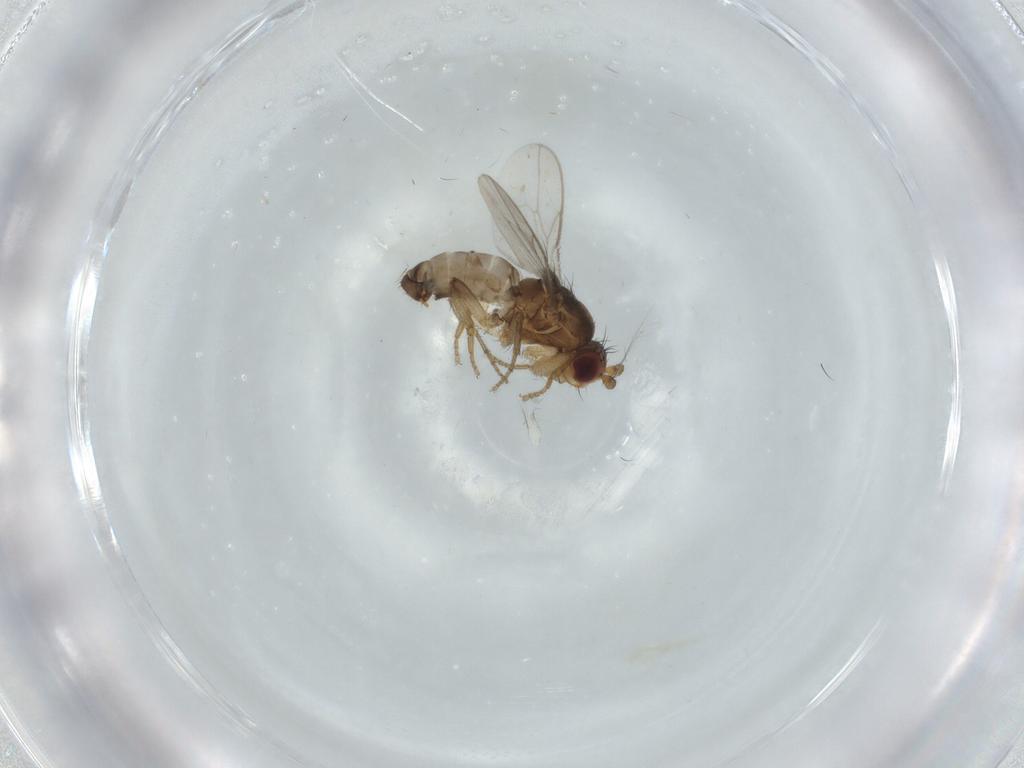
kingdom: Animalia
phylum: Arthropoda
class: Insecta
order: Diptera
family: Sphaeroceridae
